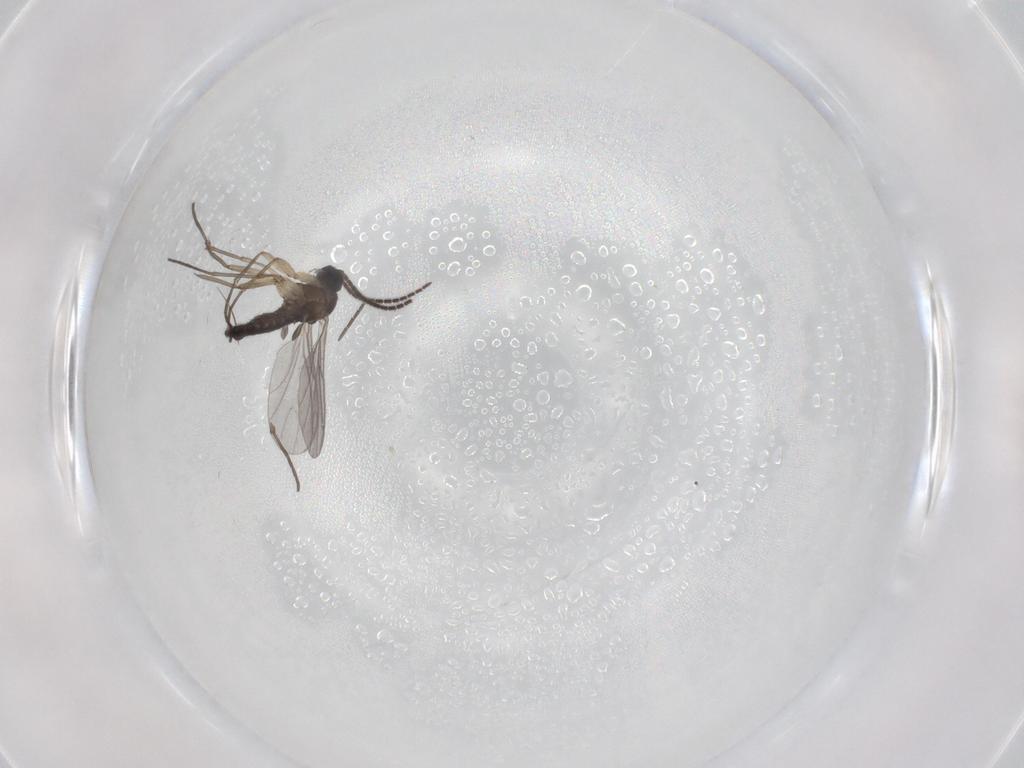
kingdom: Animalia
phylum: Arthropoda
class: Insecta
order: Diptera
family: Sciaridae
